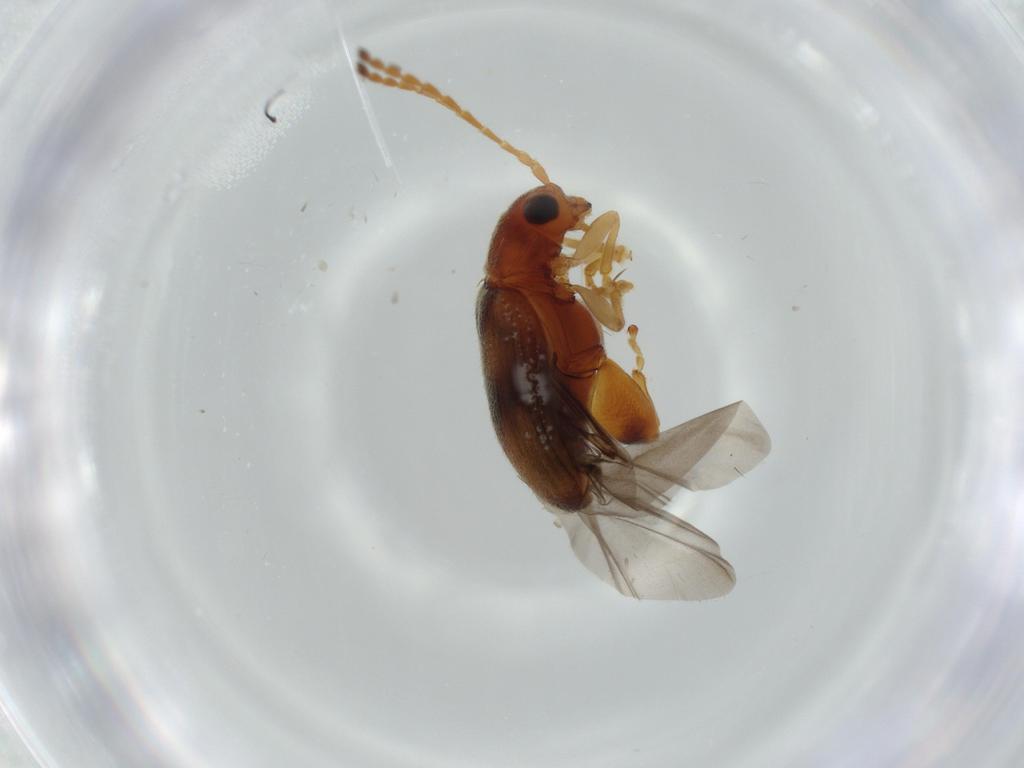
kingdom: Animalia
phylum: Arthropoda
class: Insecta
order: Coleoptera
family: Chrysomelidae
